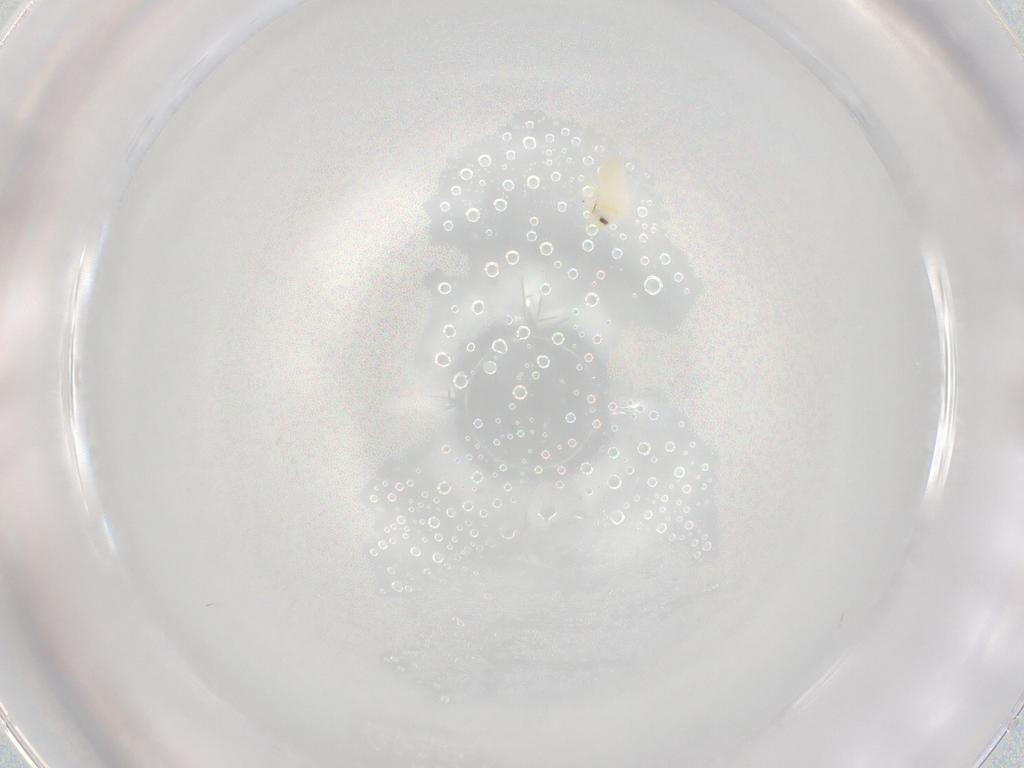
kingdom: Animalia
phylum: Arthropoda
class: Insecta
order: Hemiptera
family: Aleyrodidae
